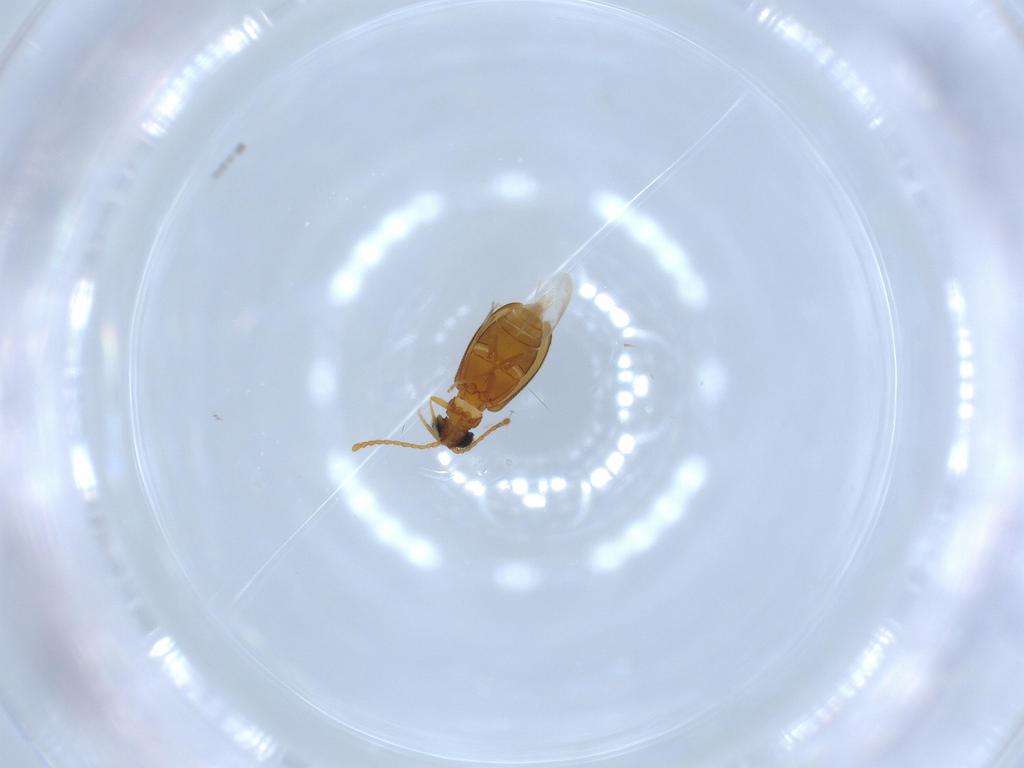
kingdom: Animalia
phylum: Arthropoda
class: Insecta
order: Coleoptera
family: Aderidae
